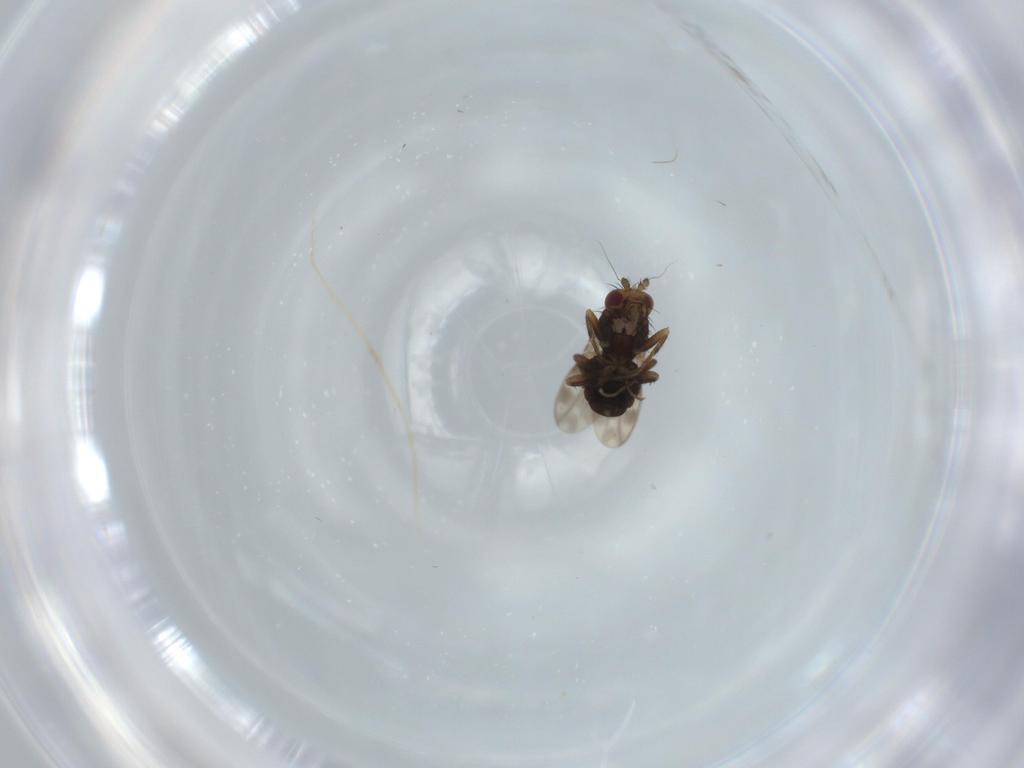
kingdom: Animalia
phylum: Arthropoda
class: Insecta
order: Diptera
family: Sphaeroceridae
